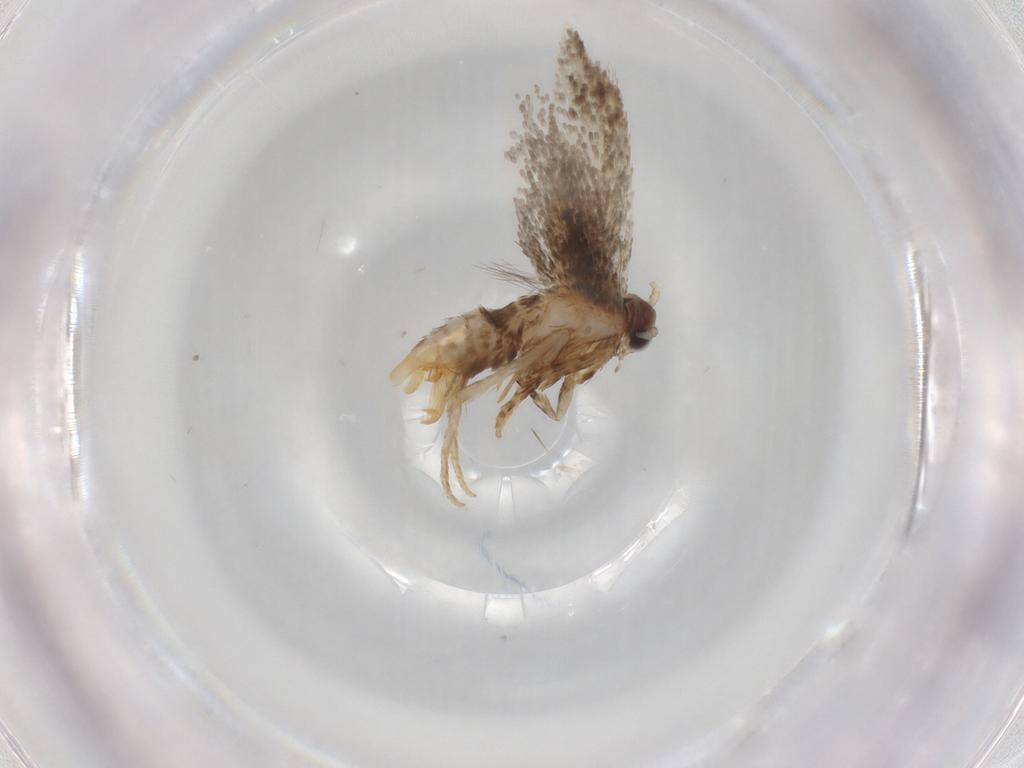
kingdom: Animalia
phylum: Arthropoda
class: Insecta
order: Lepidoptera
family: Tineidae
